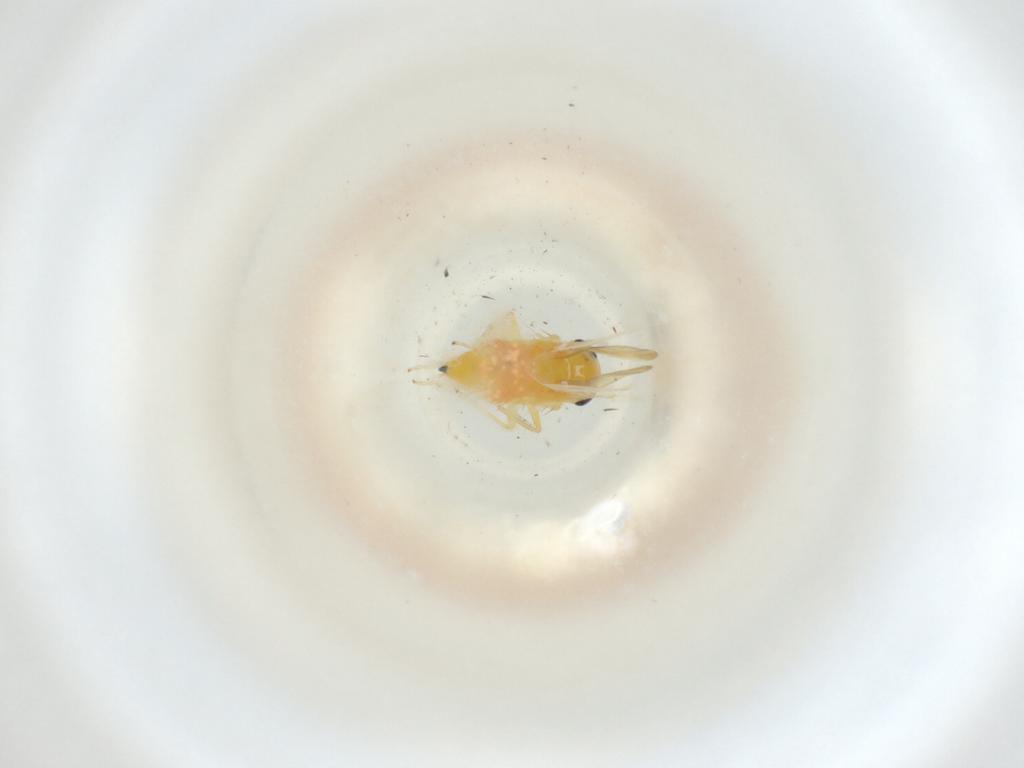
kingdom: Animalia
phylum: Arthropoda
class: Insecta
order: Hemiptera
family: Cicadellidae
